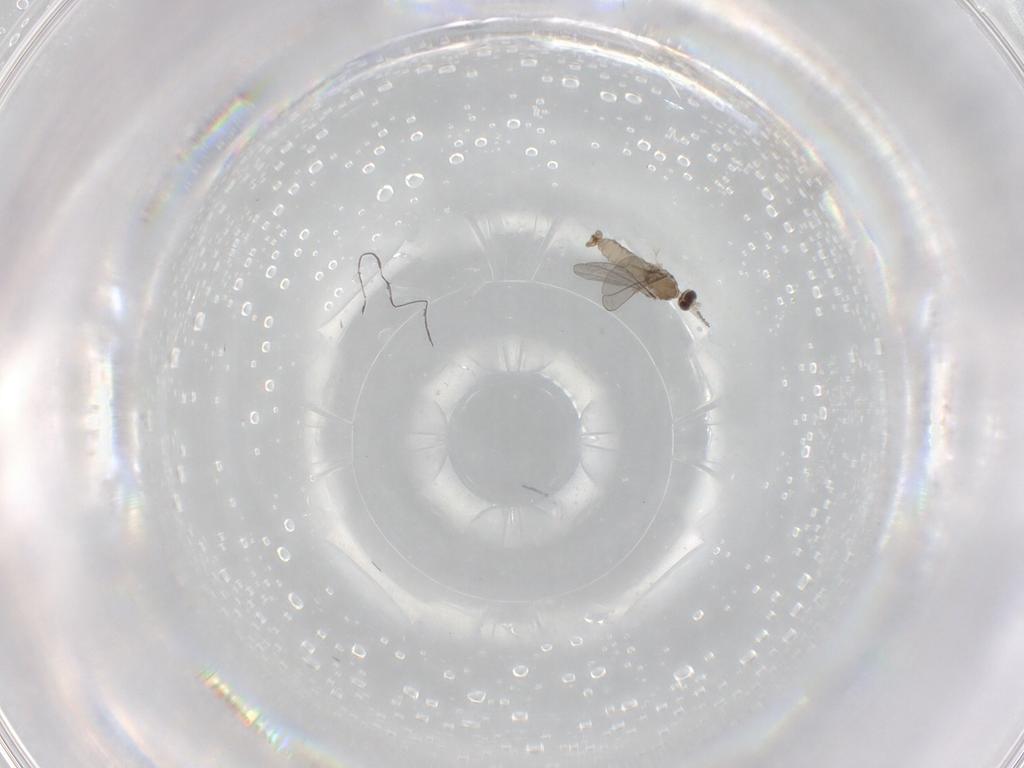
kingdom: Animalia
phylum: Arthropoda
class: Insecta
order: Diptera
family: Cecidomyiidae
